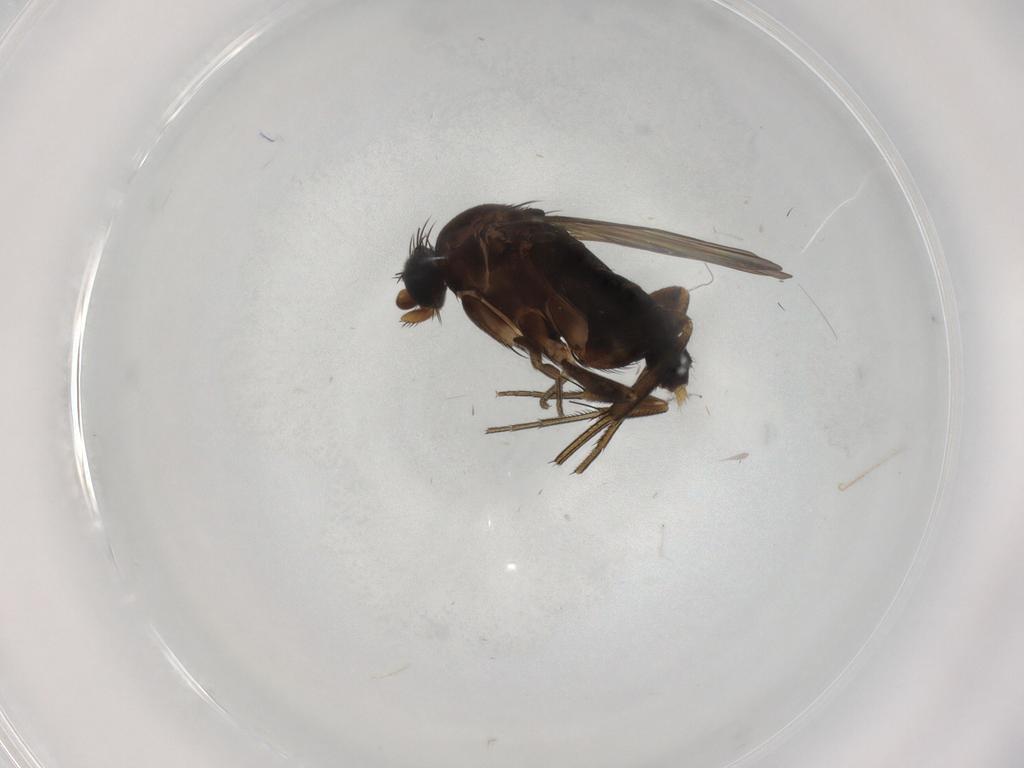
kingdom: Animalia
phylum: Arthropoda
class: Insecta
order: Diptera
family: Phoridae
